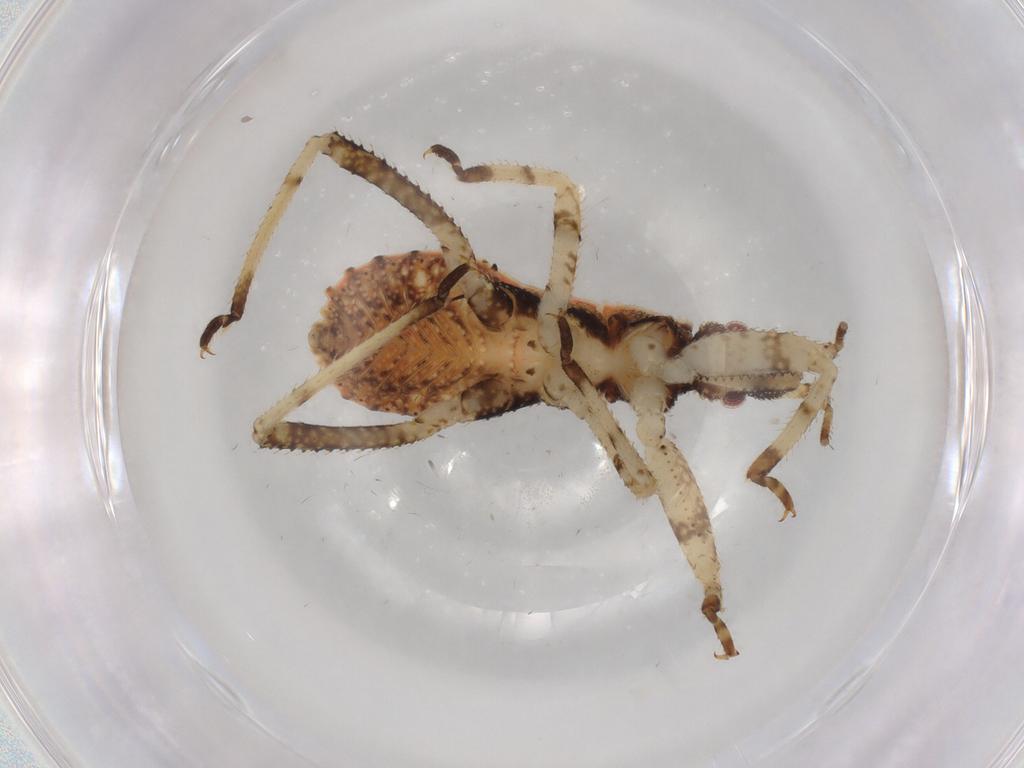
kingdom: Animalia
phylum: Arthropoda
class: Insecta
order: Hemiptera
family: Reduviidae
